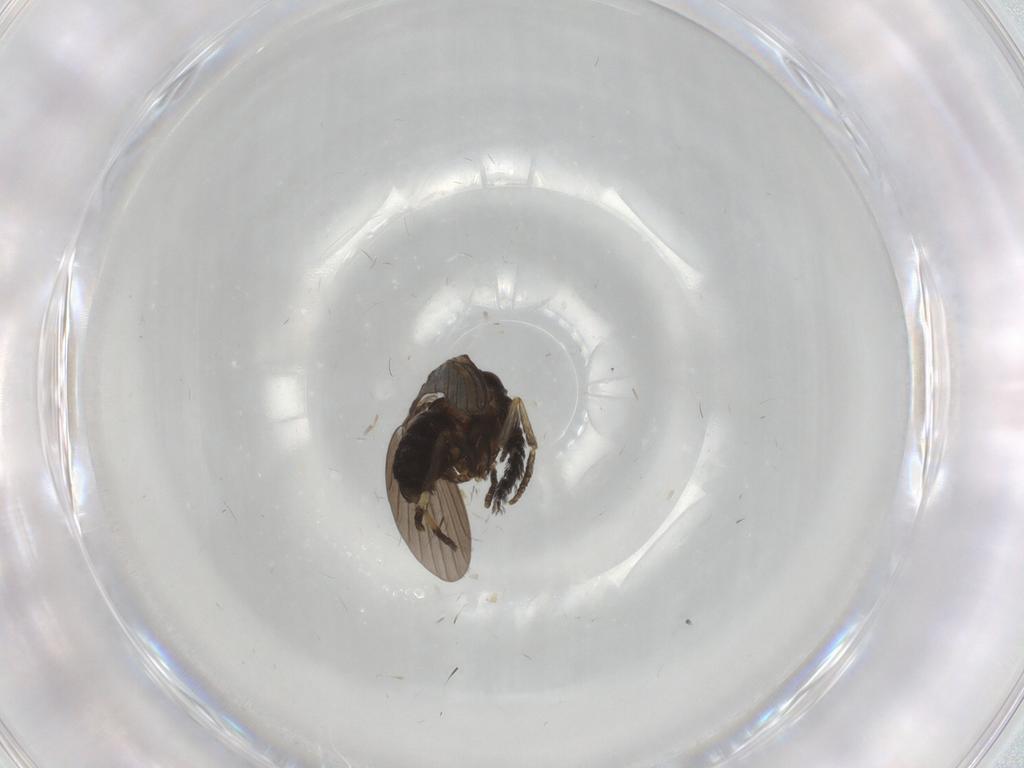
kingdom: Animalia
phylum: Arthropoda
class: Insecta
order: Diptera
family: Psychodidae
